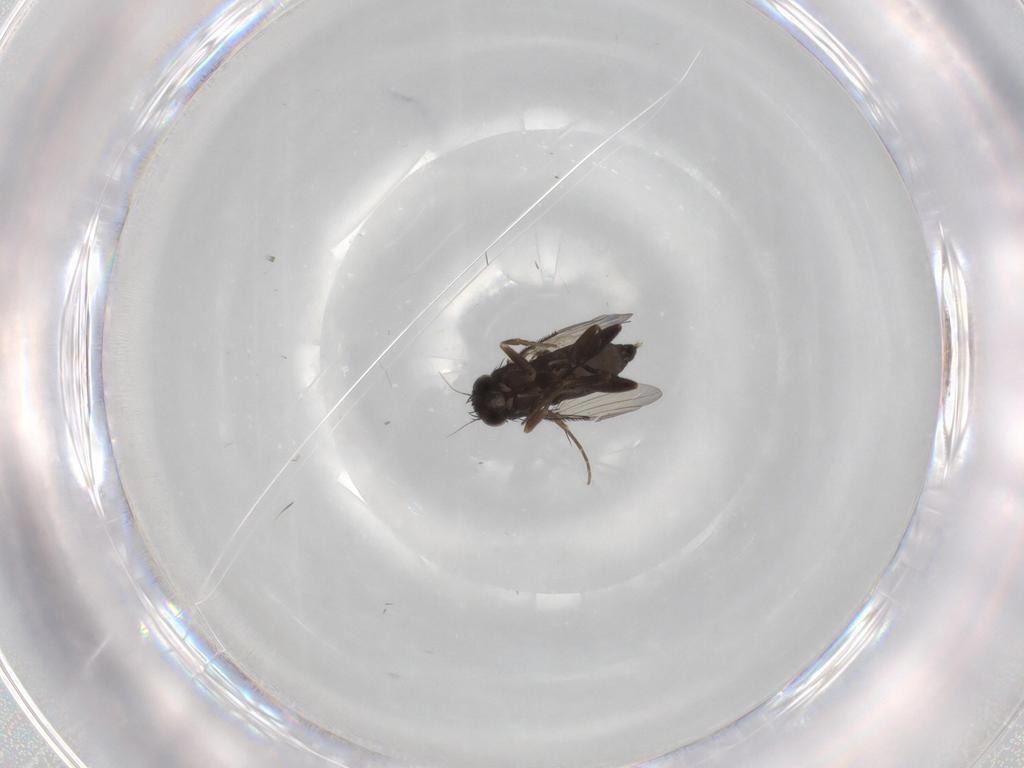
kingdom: Animalia
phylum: Arthropoda
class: Insecta
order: Diptera
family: Phoridae
